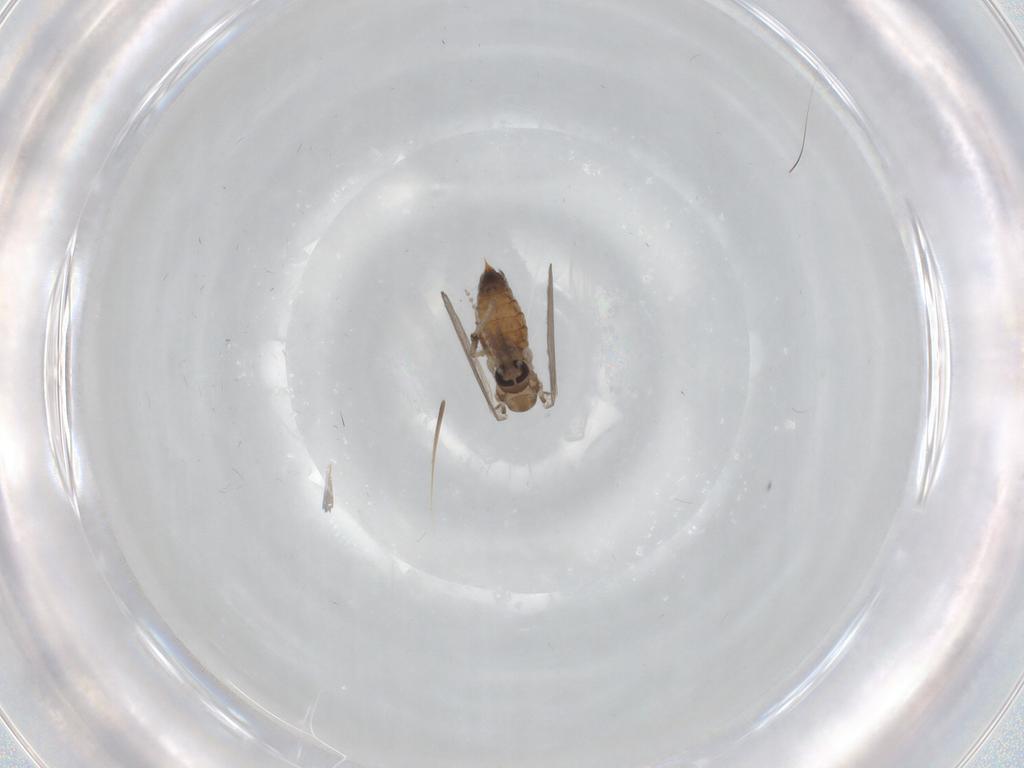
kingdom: Animalia
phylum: Arthropoda
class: Insecta
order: Diptera
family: Psychodidae
